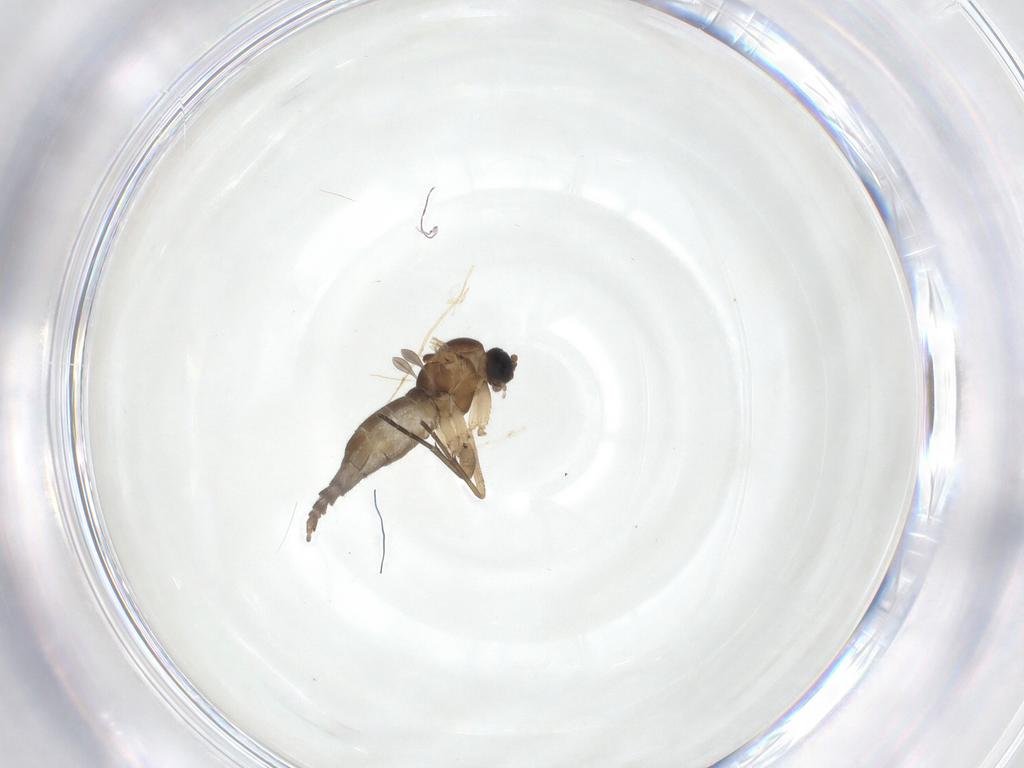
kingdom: Animalia
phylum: Arthropoda
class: Insecta
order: Diptera
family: Sciaridae
